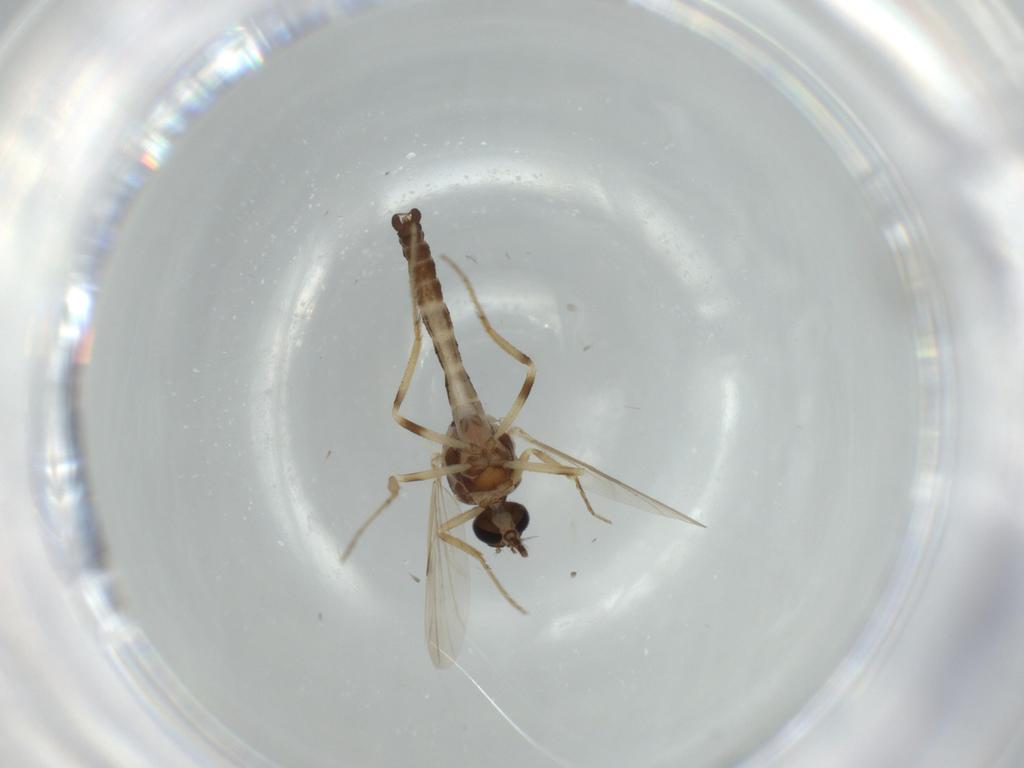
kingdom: Animalia
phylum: Arthropoda
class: Insecta
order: Diptera
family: Ceratopogonidae
